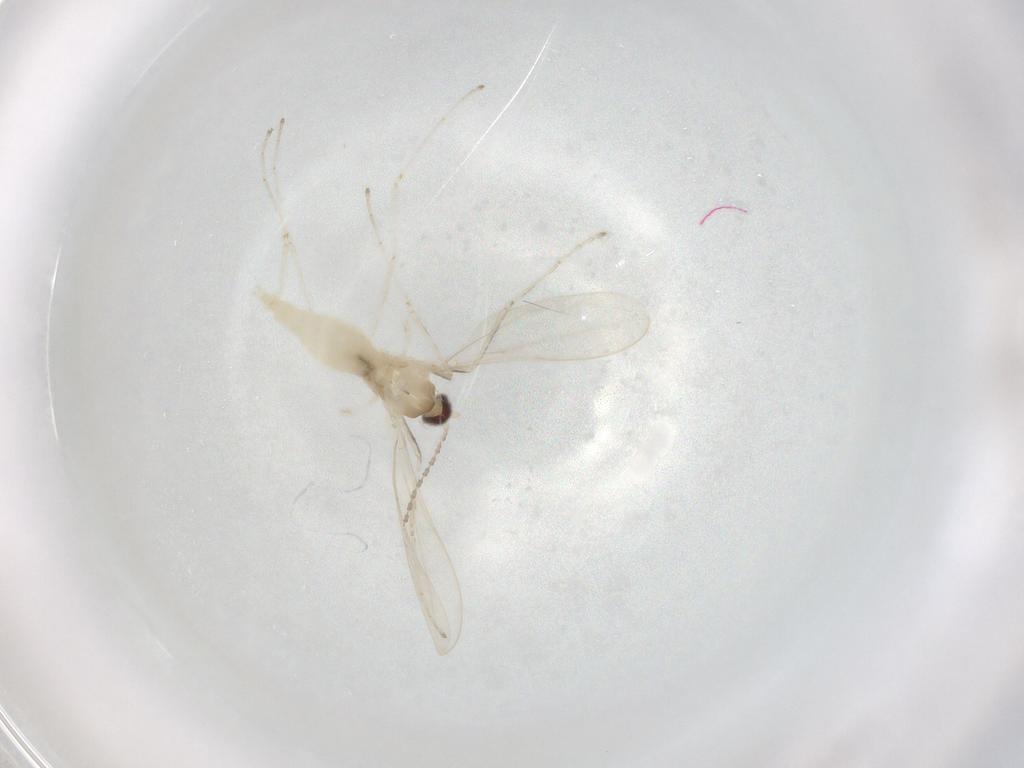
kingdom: Animalia
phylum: Arthropoda
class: Insecta
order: Diptera
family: Cecidomyiidae
